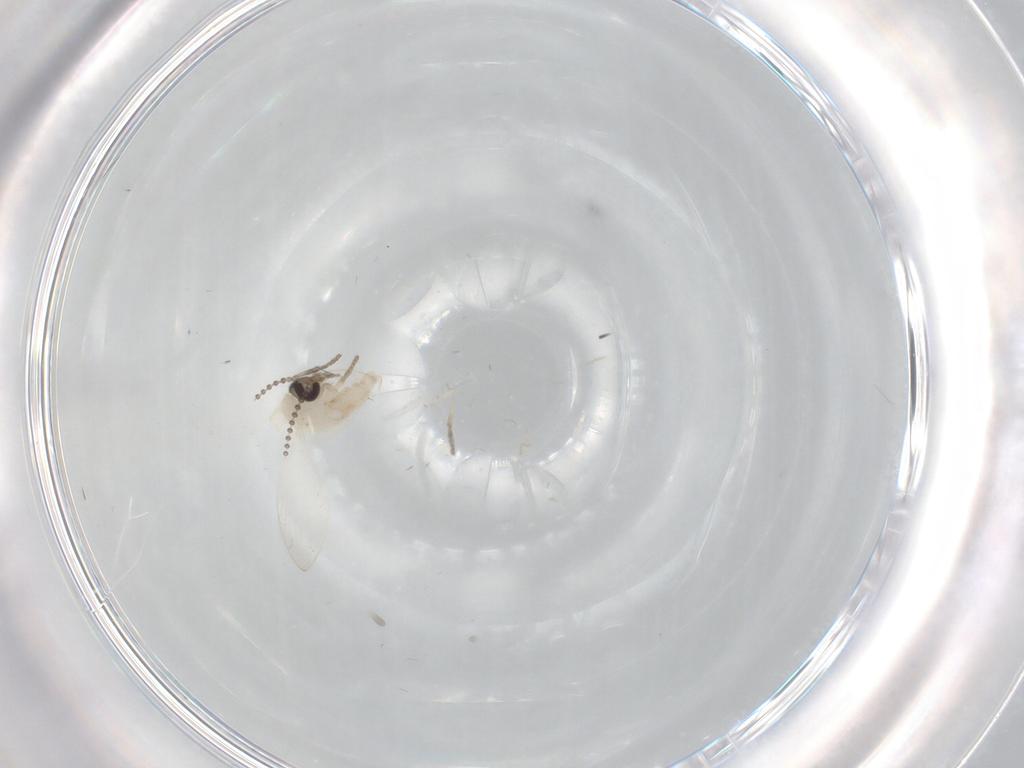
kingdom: Animalia
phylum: Arthropoda
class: Insecta
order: Diptera
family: Psychodidae
